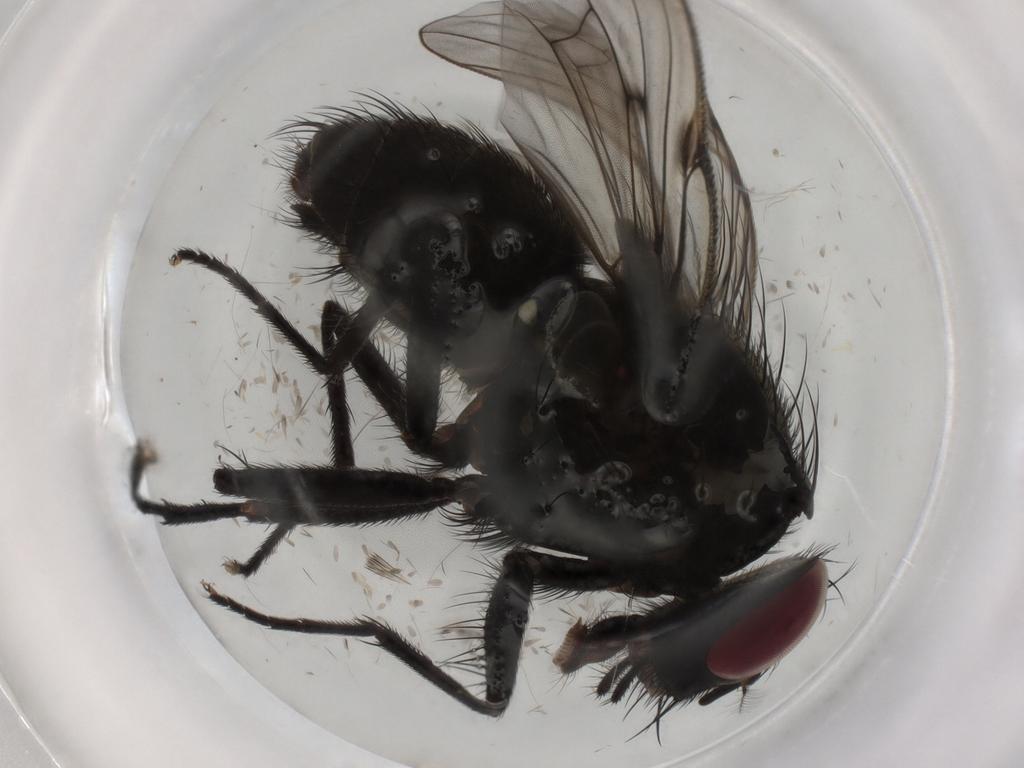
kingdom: Animalia
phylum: Arthropoda
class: Insecta
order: Diptera
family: Muscidae
